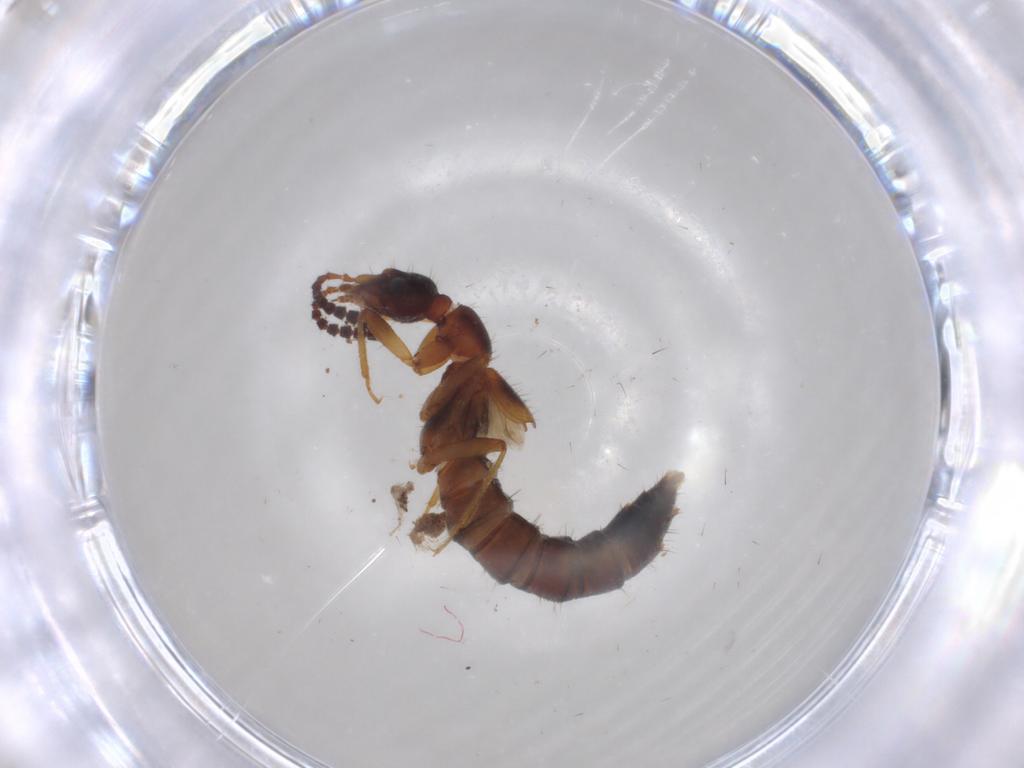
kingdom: Animalia
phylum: Arthropoda
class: Insecta
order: Coleoptera
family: Staphylinidae
